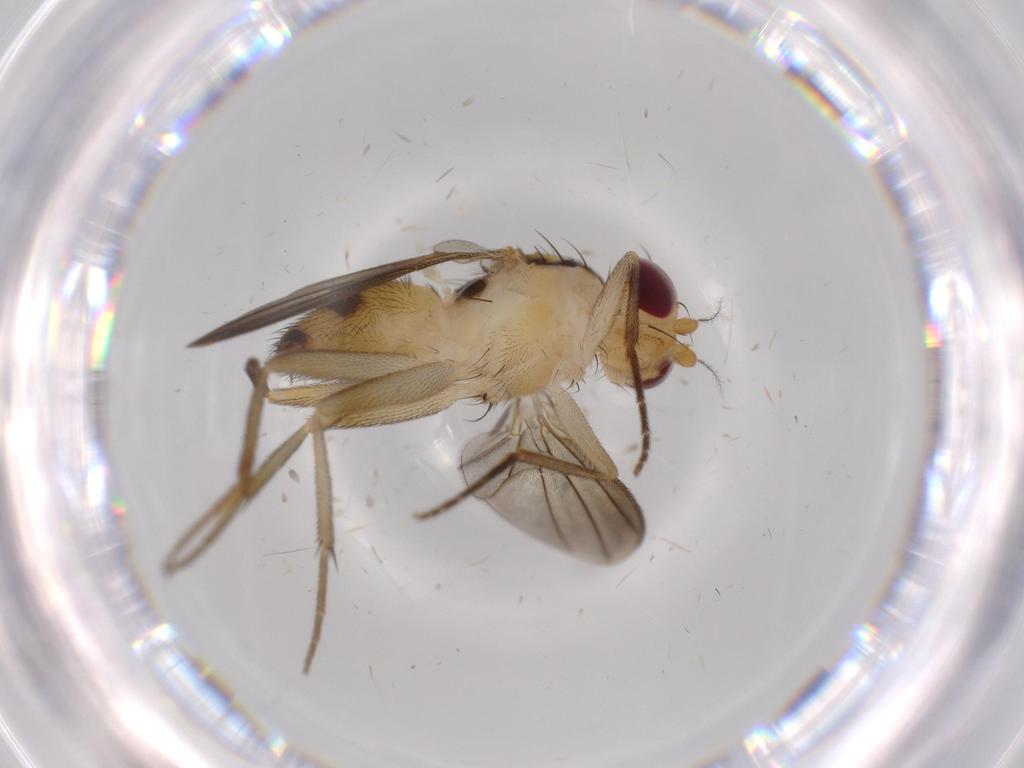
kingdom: Animalia
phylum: Arthropoda
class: Insecta
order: Diptera
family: Clusiidae
